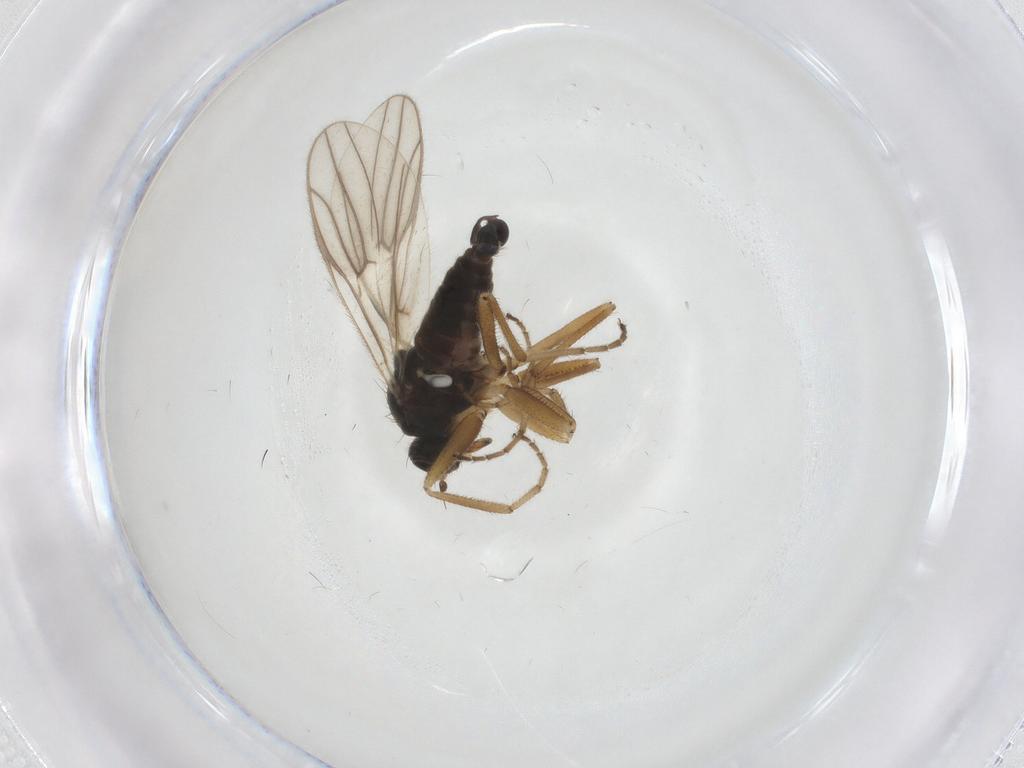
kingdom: Animalia
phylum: Arthropoda
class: Insecta
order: Diptera
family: Hybotidae
